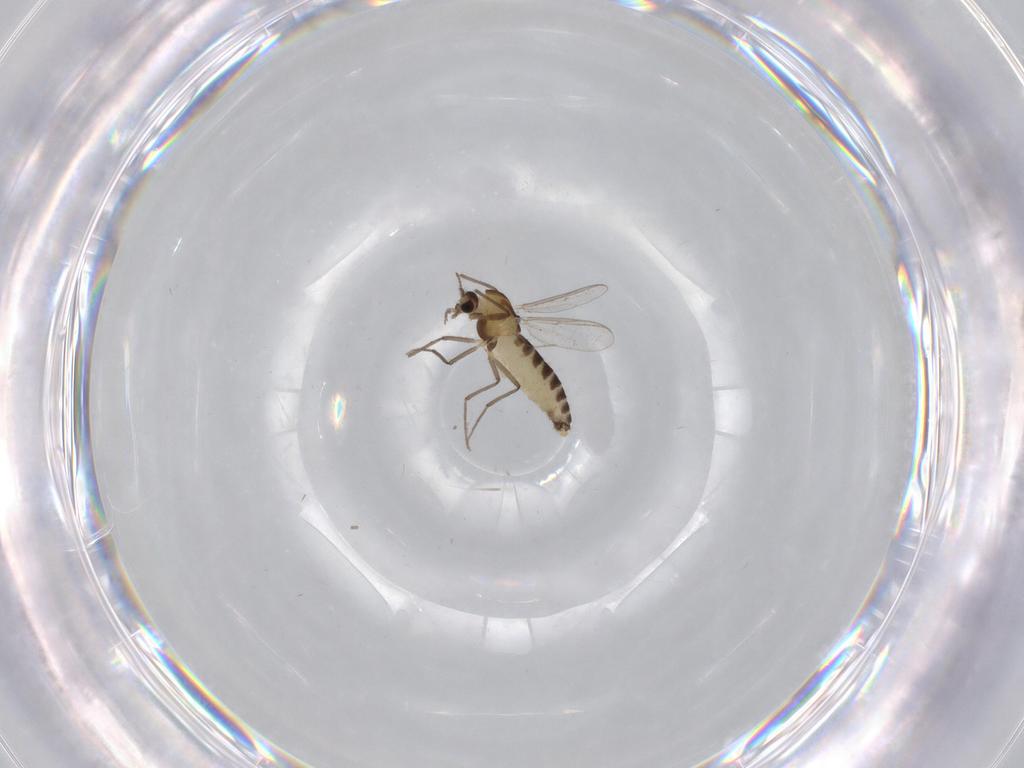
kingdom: Animalia
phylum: Arthropoda
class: Insecta
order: Diptera
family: Chironomidae
